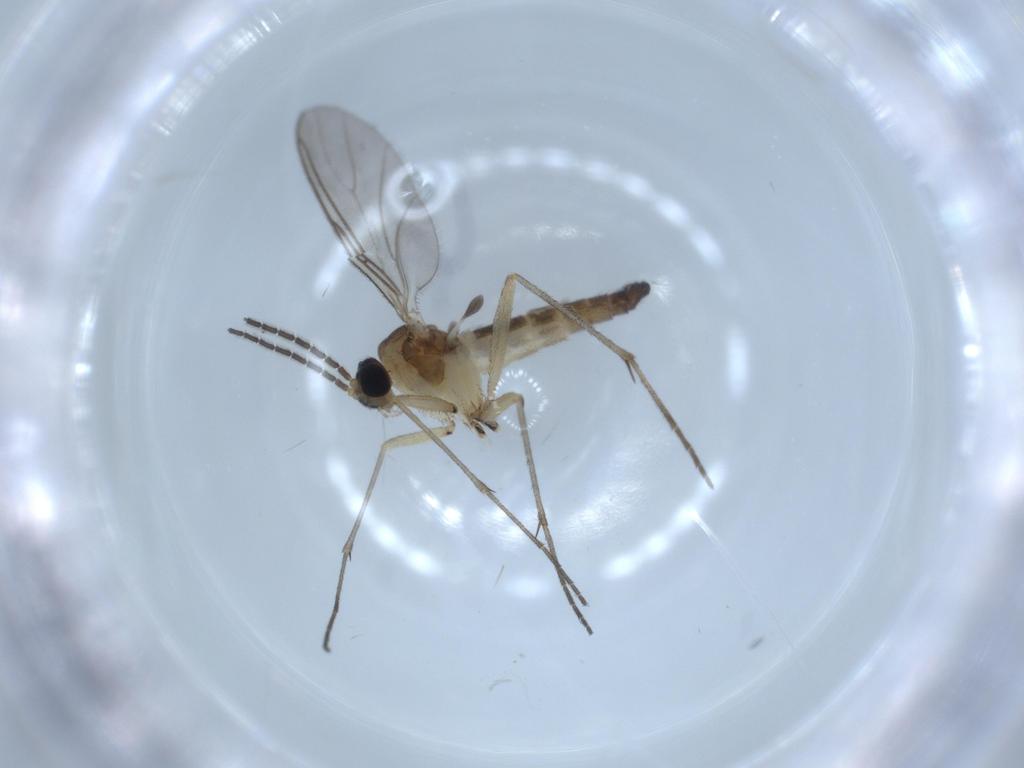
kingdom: Animalia
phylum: Arthropoda
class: Insecta
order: Diptera
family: Sciaridae
